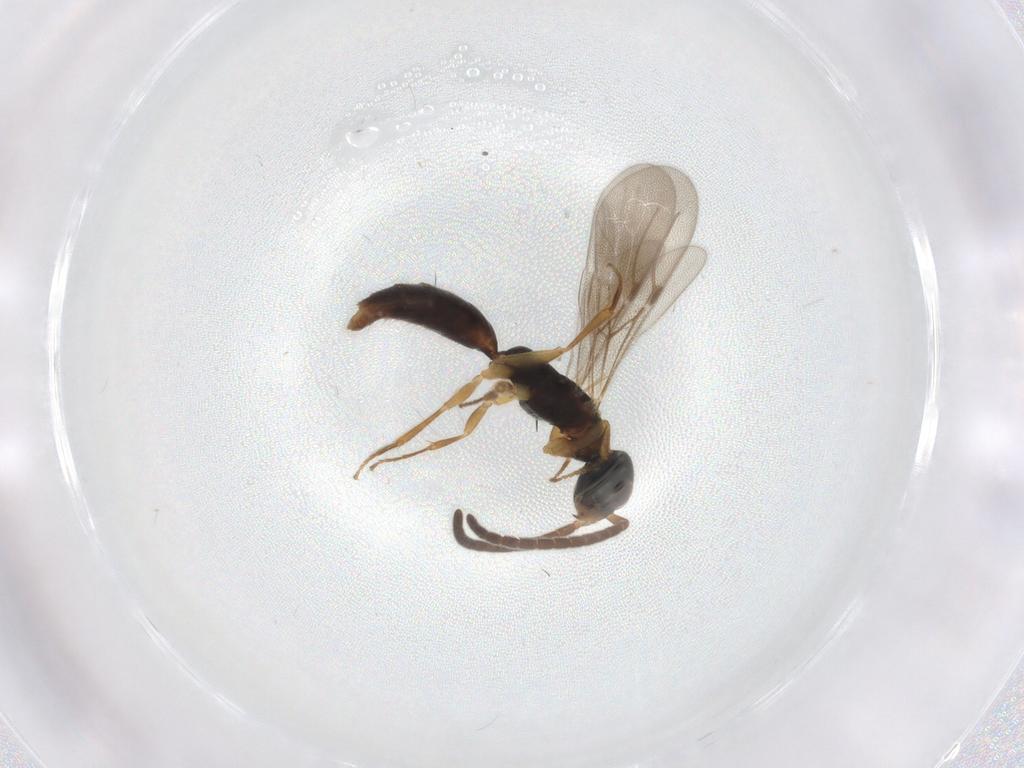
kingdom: Animalia
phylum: Arthropoda
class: Insecta
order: Hymenoptera
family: Bethylidae
